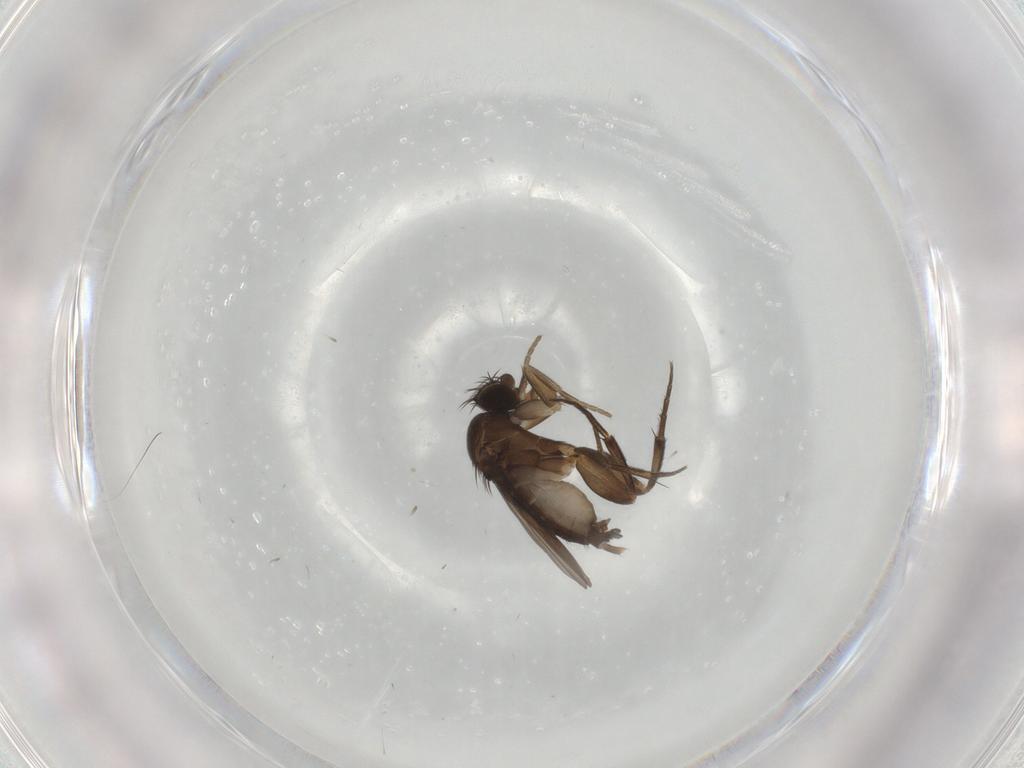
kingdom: Animalia
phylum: Arthropoda
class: Insecta
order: Diptera
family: Phoridae
